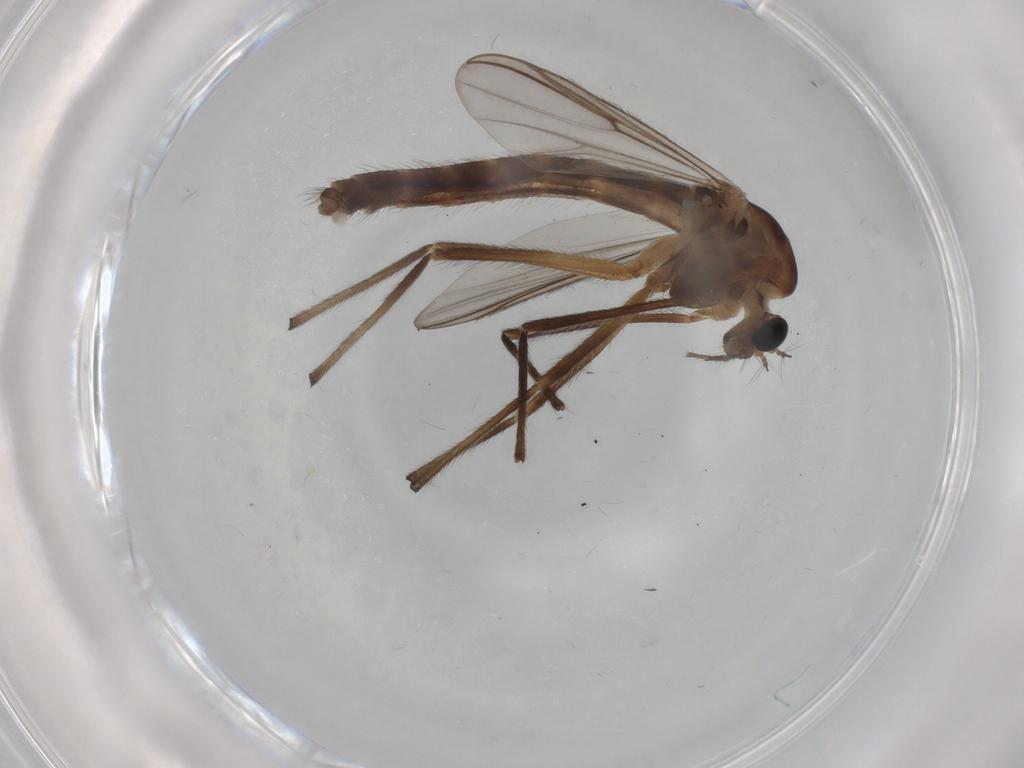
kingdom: Animalia
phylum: Arthropoda
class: Insecta
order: Diptera
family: Chironomidae
